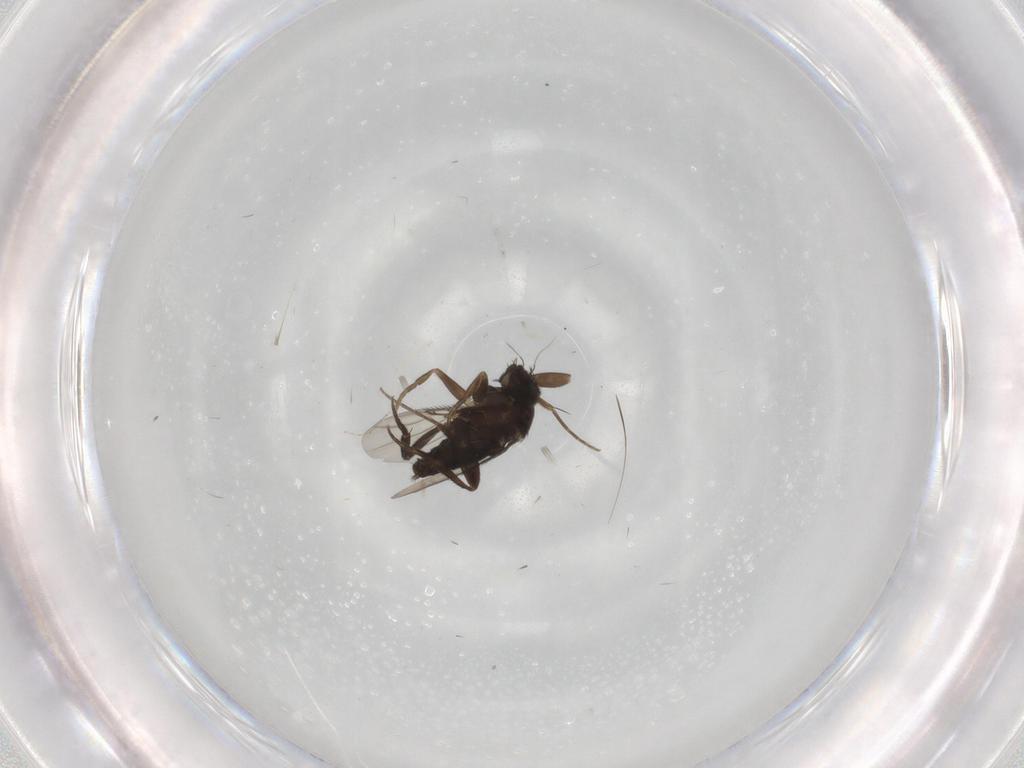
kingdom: Animalia
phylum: Arthropoda
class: Insecta
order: Diptera
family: Phoridae
